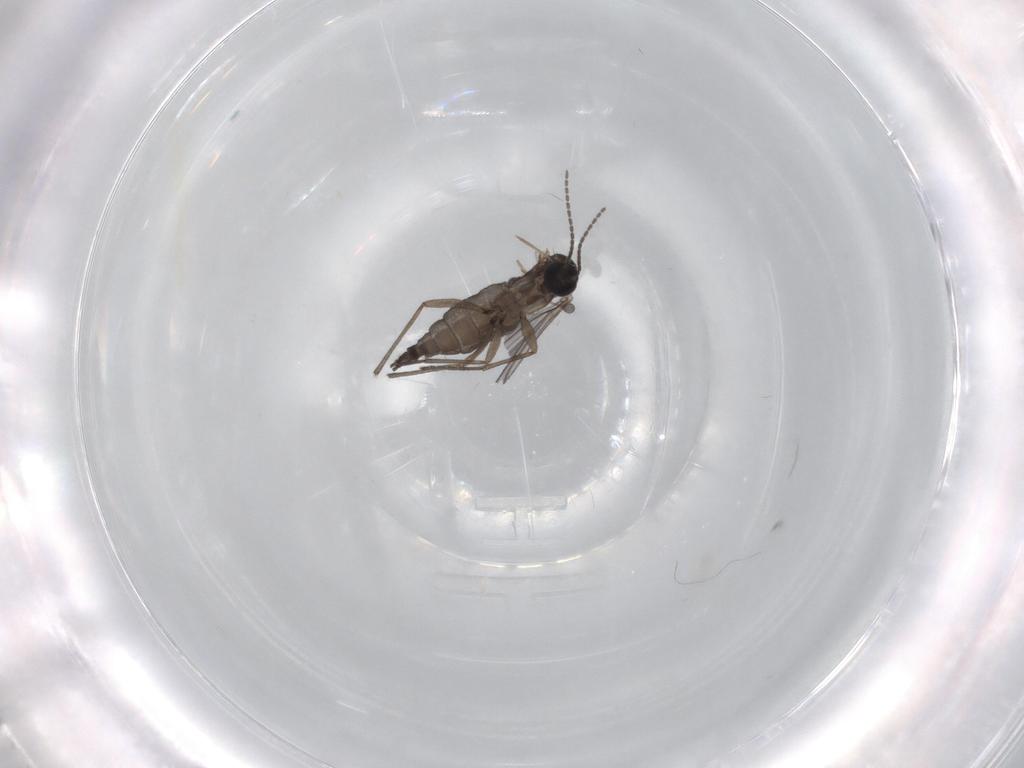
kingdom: Animalia
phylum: Arthropoda
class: Insecta
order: Diptera
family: Sciaridae
